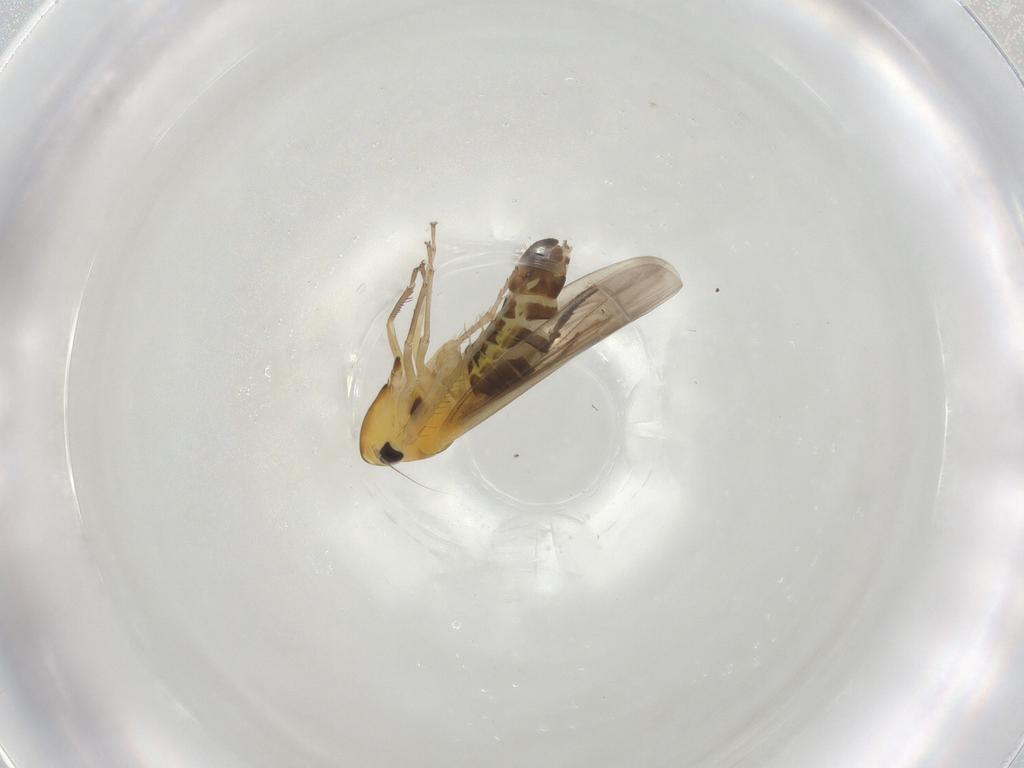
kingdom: Animalia
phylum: Arthropoda
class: Insecta
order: Hemiptera
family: Cicadellidae
